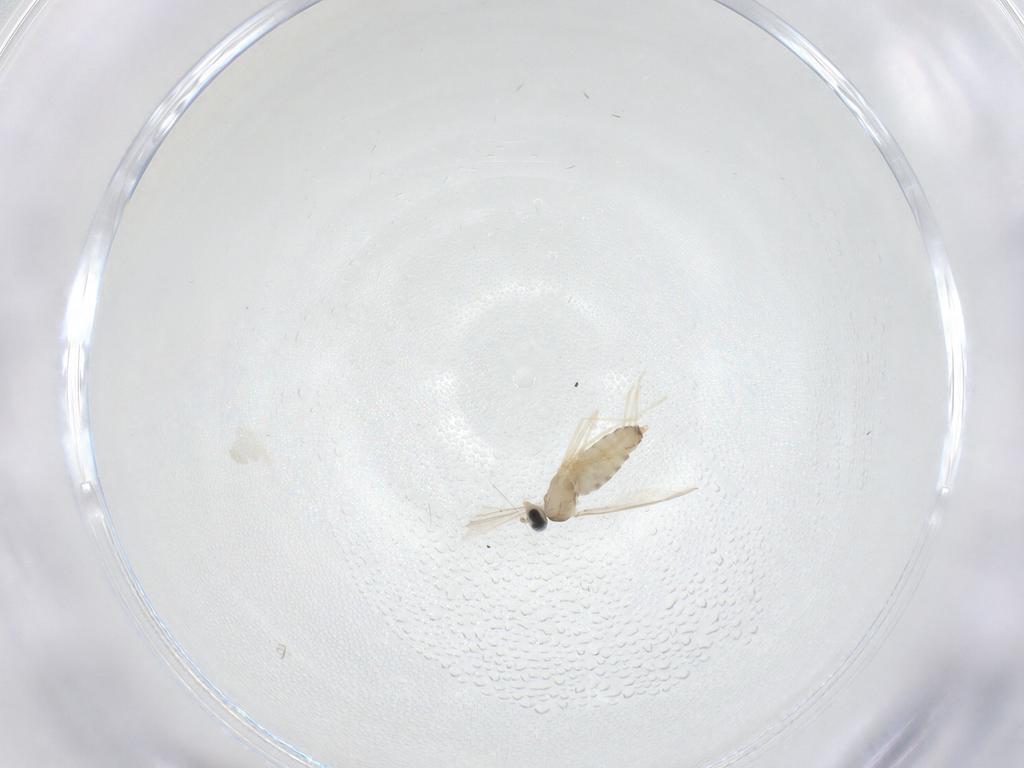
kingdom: Animalia
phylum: Arthropoda
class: Insecta
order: Diptera
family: Cecidomyiidae
